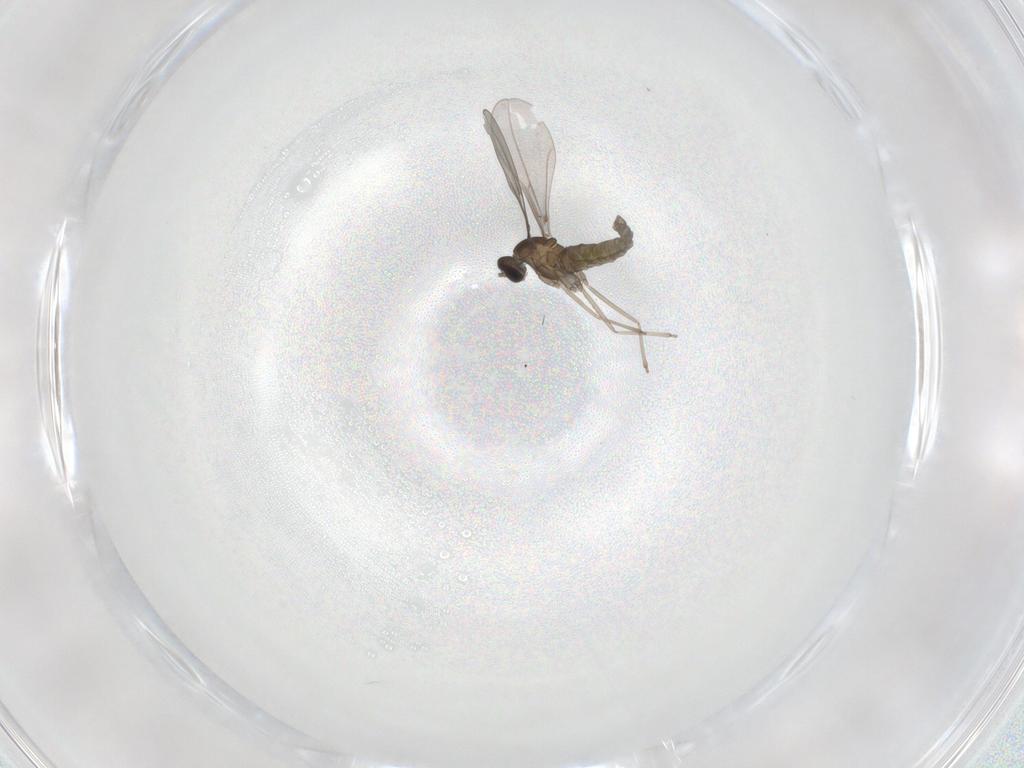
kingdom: Animalia
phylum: Arthropoda
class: Insecta
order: Diptera
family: Cecidomyiidae
